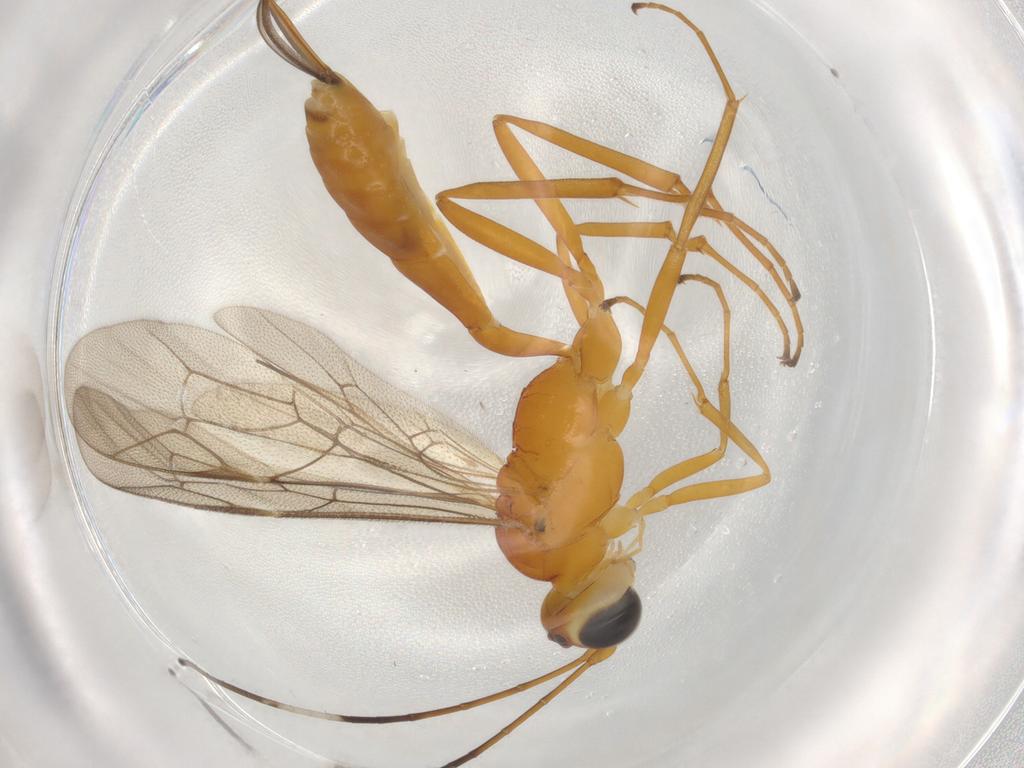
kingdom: Animalia
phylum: Arthropoda
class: Insecta
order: Hymenoptera
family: Ichneumonidae
